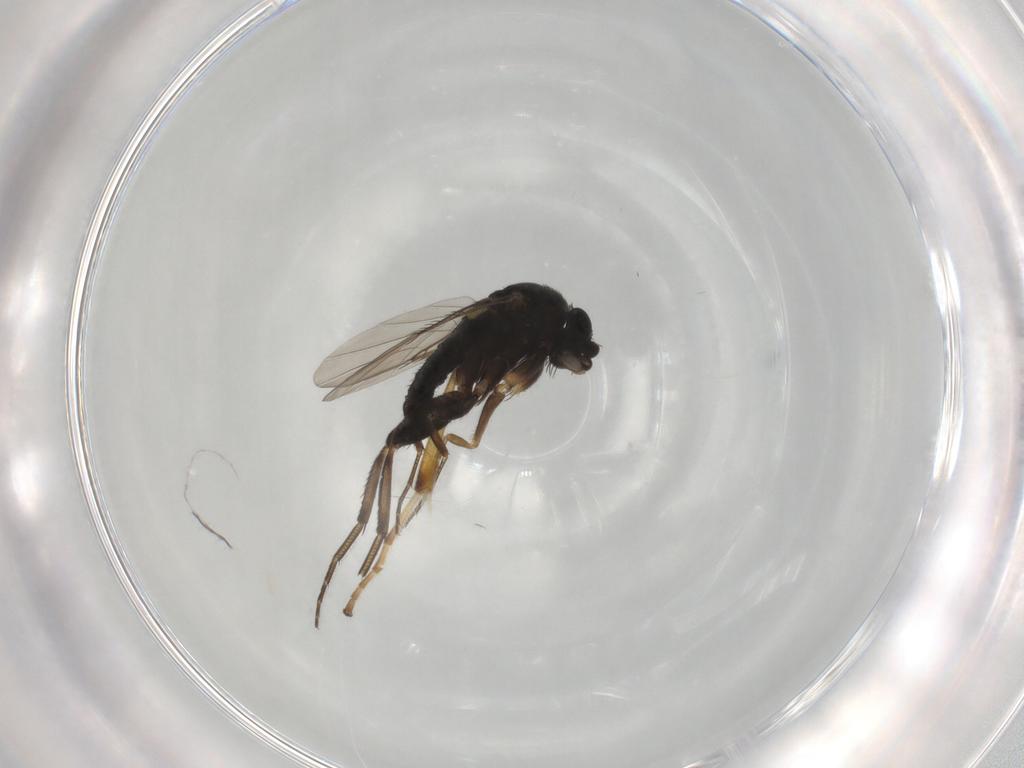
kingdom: Animalia
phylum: Arthropoda
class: Insecta
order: Diptera
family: Phoridae
